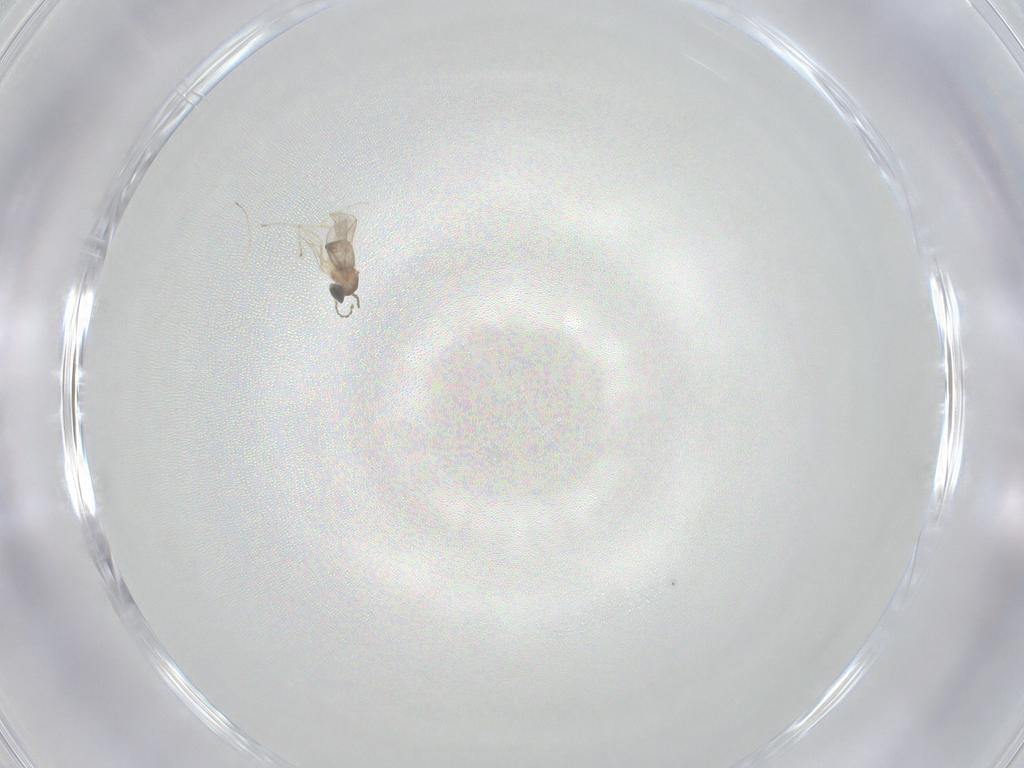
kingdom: Animalia
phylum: Arthropoda
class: Insecta
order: Diptera
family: Cecidomyiidae
